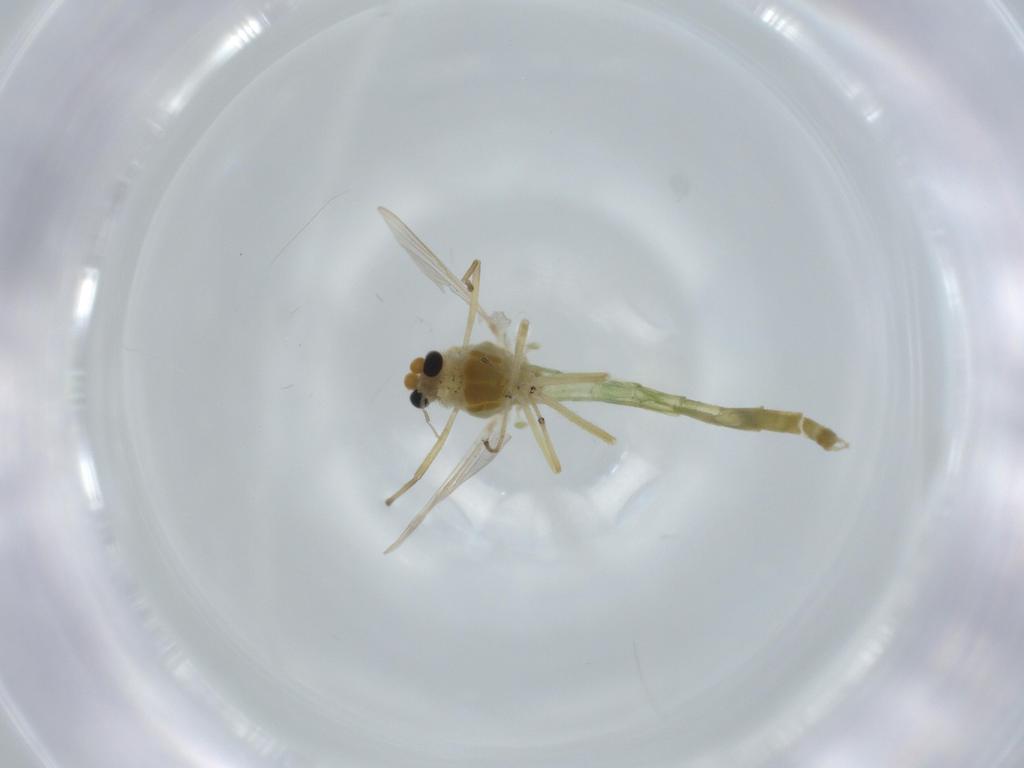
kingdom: Animalia
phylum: Arthropoda
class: Insecta
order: Diptera
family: Chironomidae
